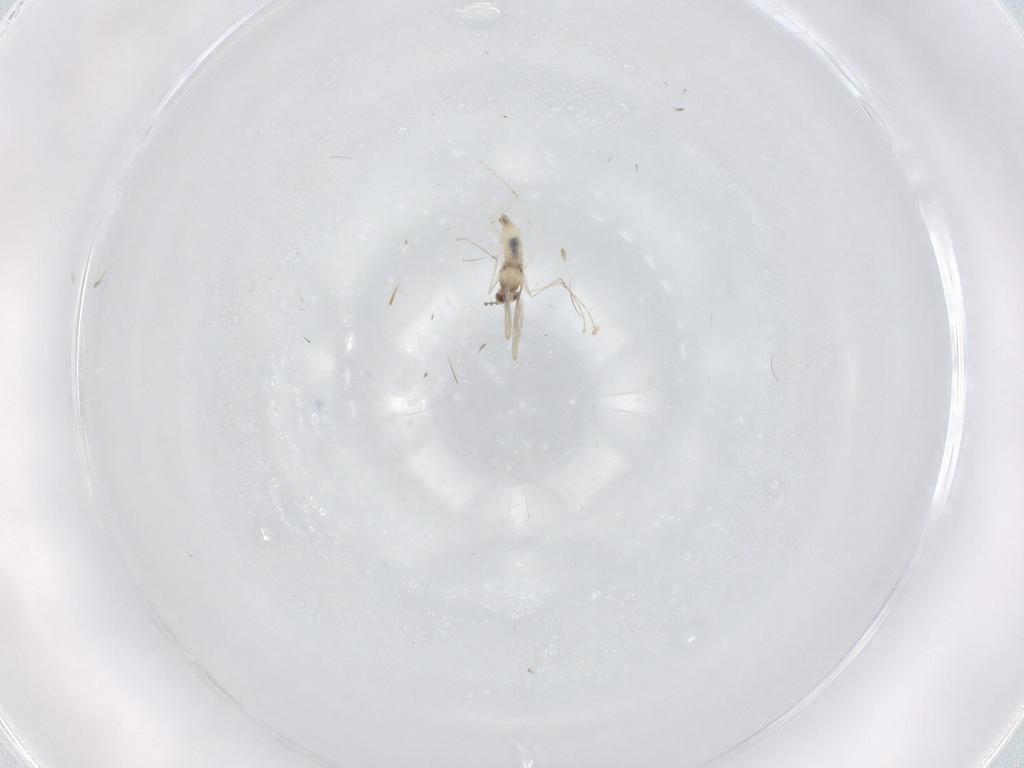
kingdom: Animalia
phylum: Arthropoda
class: Insecta
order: Diptera
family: Cecidomyiidae
